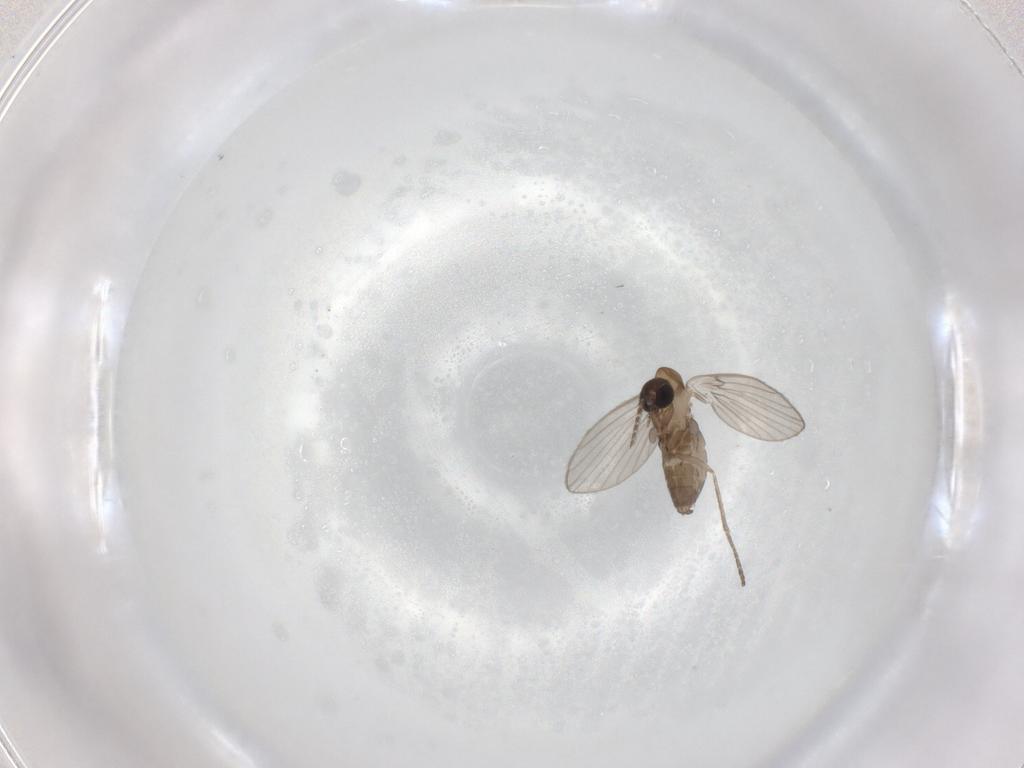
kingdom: Animalia
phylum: Arthropoda
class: Insecta
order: Diptera
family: Psychodidae
